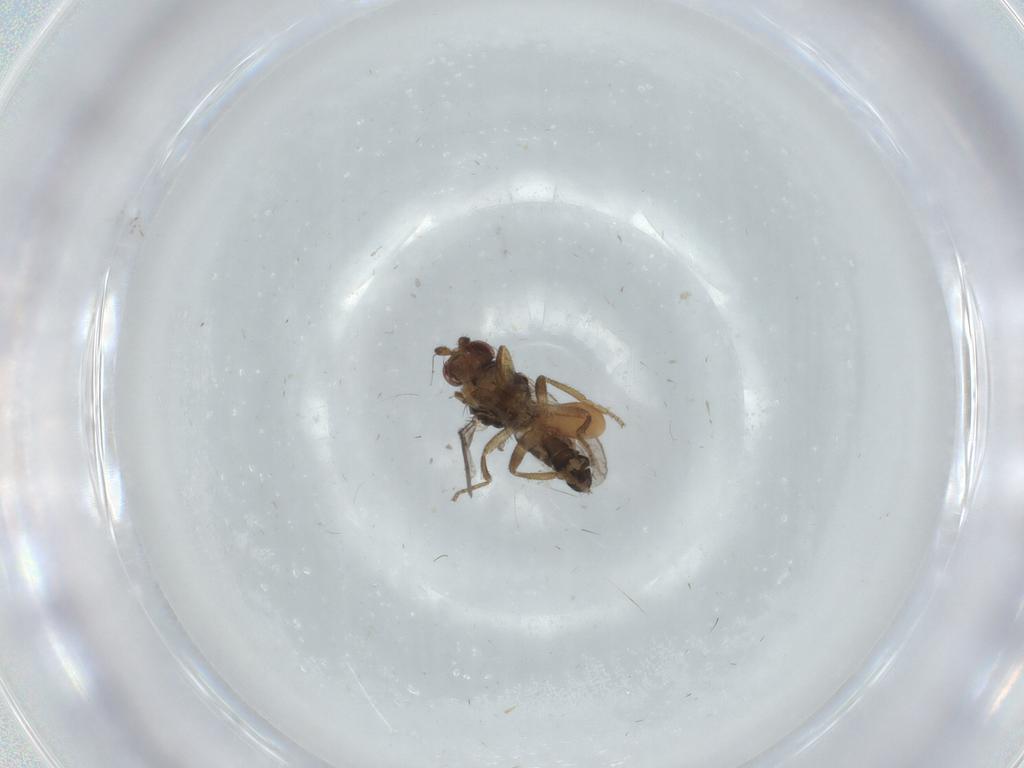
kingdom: Animalia
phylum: Arthropoda
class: Arachnida
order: Mesostigmata
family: Macrochelidae
